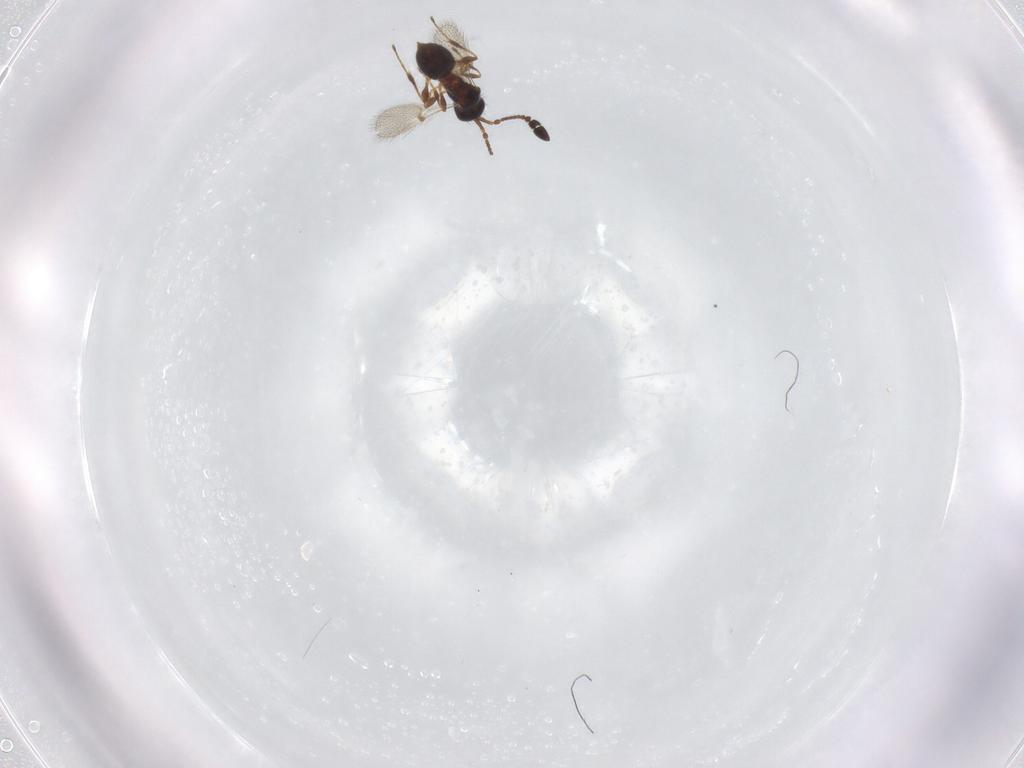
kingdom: Animalia
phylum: Arthropoda
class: Insecta
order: Hymenoptera
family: Diapriidae
